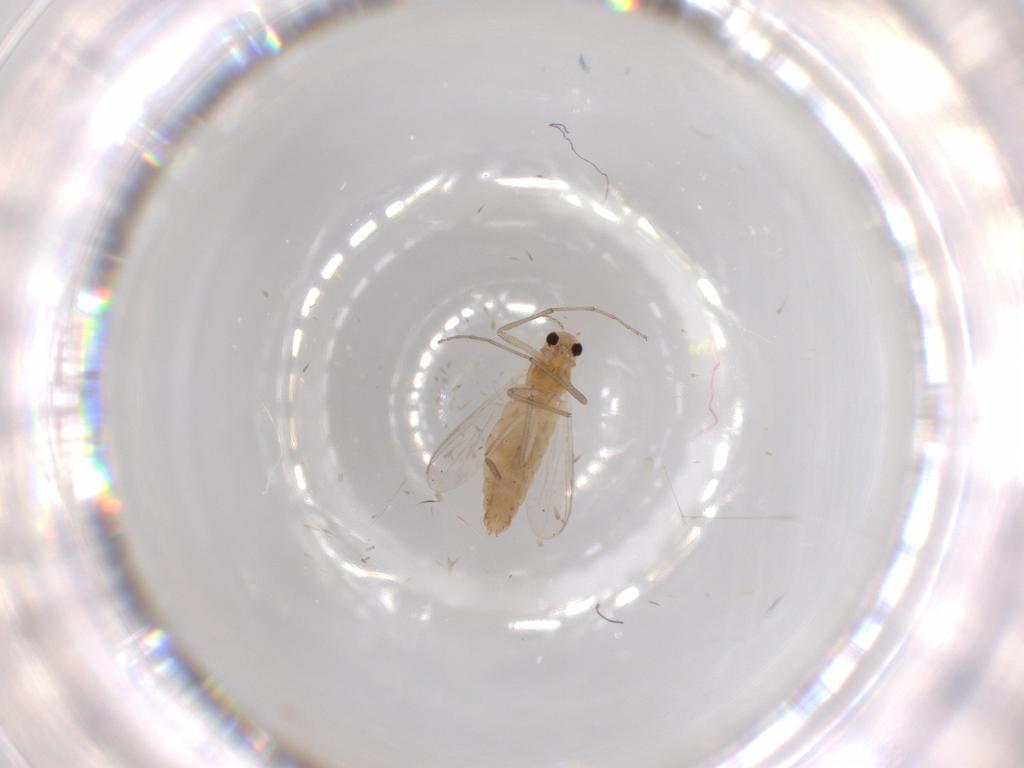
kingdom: Animalia
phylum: Arthropoda
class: Insecta
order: Diptera
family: Chironomidae
